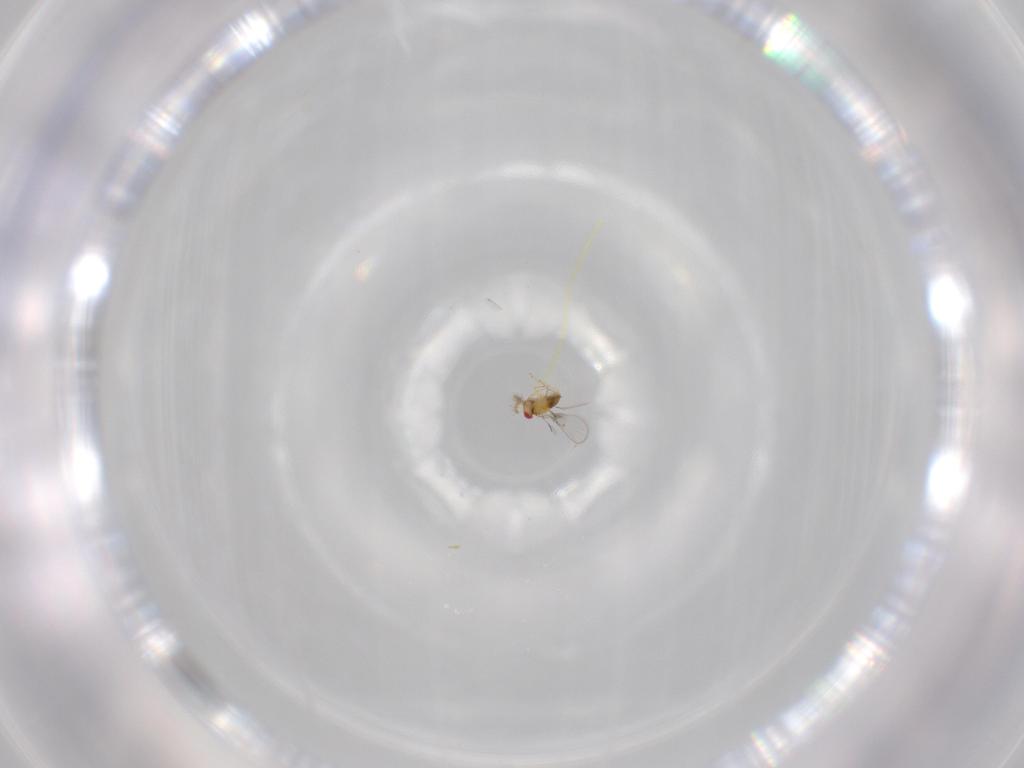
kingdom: Animalia
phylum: Arthropoda
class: Insecta
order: Hymenoptera
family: Trichogrammatidae
